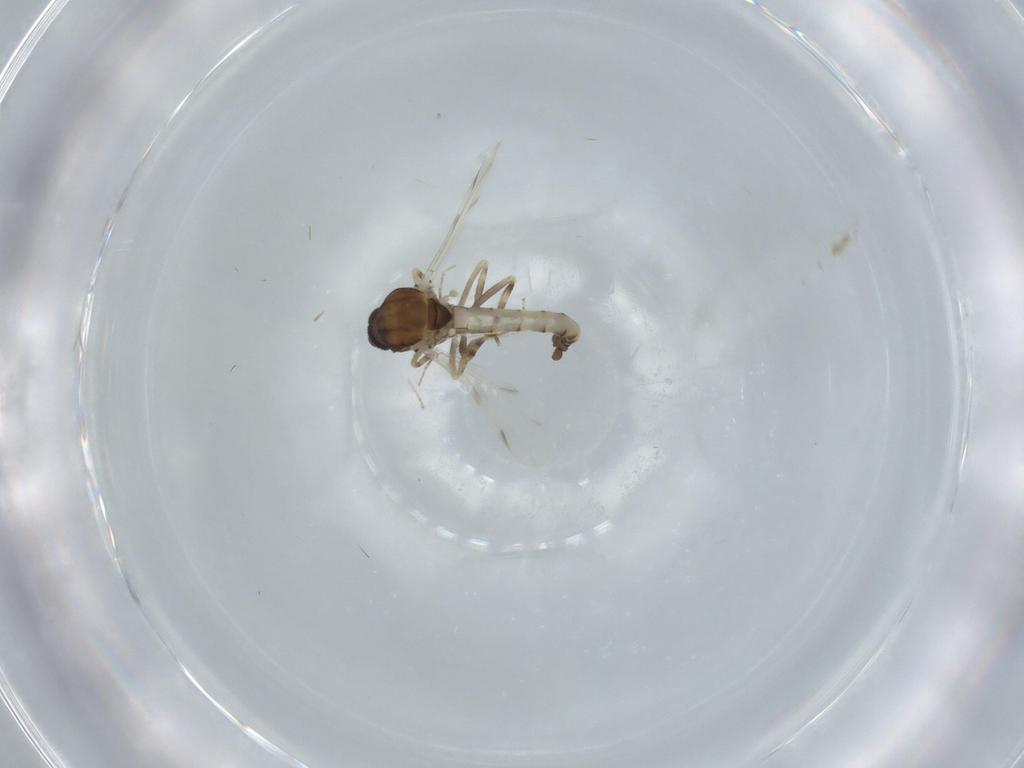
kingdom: Animalia
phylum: Arthropoda
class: Insecta
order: Diptera
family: Ceratopogonidae
